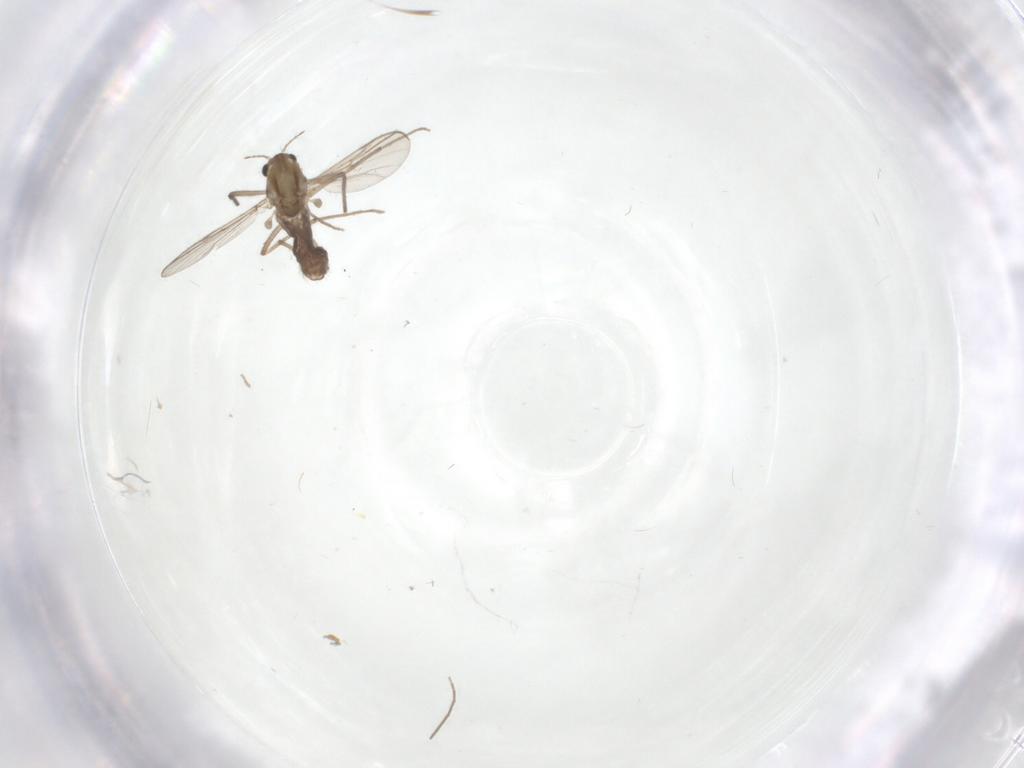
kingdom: Animalia
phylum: Arthropoda
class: Insecta
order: Diptera
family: Chironomidae
